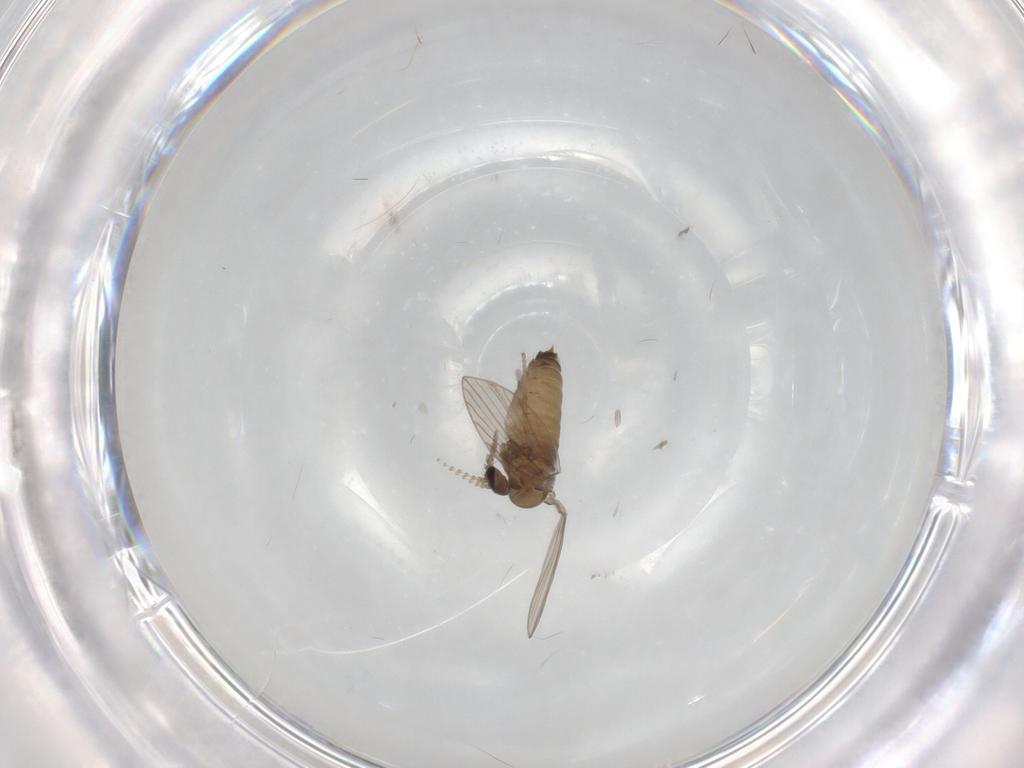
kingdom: Animalia
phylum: Arthropoda
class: Insecta
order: Diptera
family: Psychodidae
